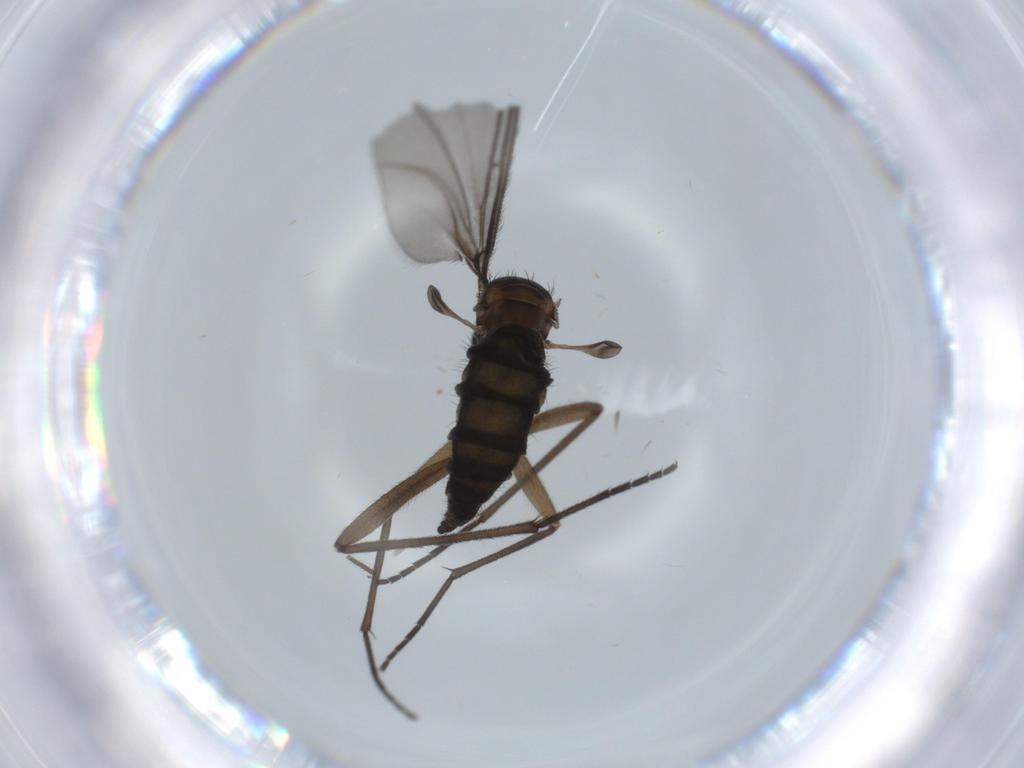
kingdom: Animalia
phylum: Arthropoda
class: Insecta
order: Diptera
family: Sciaridae
